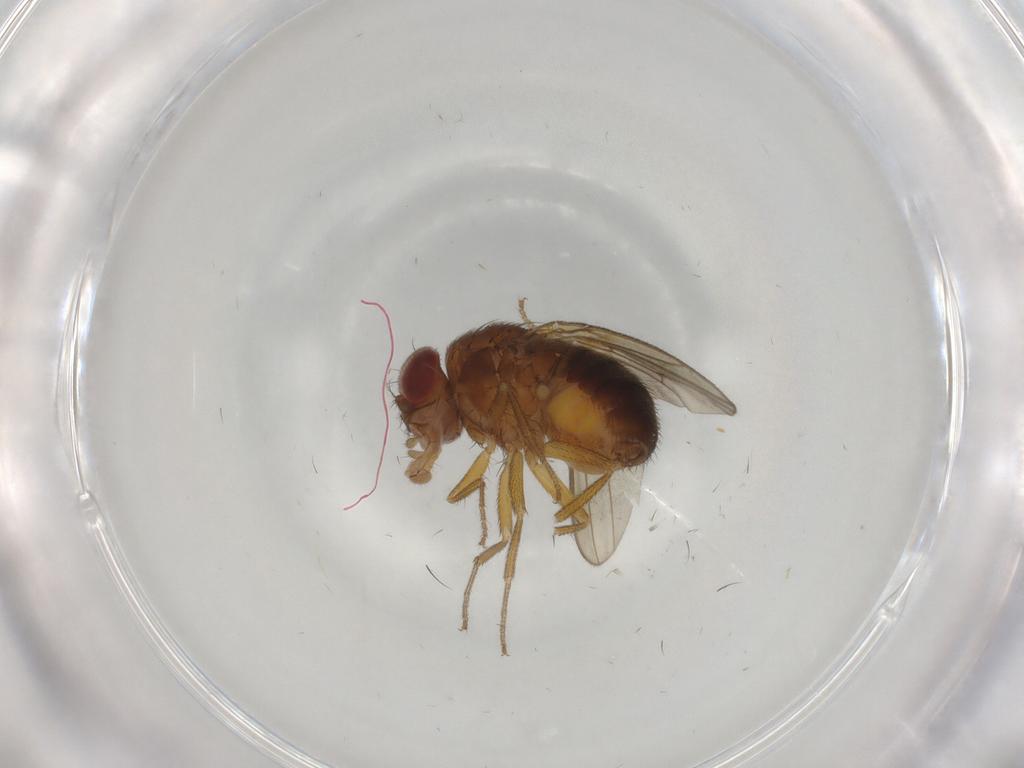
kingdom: Animalia
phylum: Arthropoda
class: Insecta
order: Diptera
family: Drosophilidae
